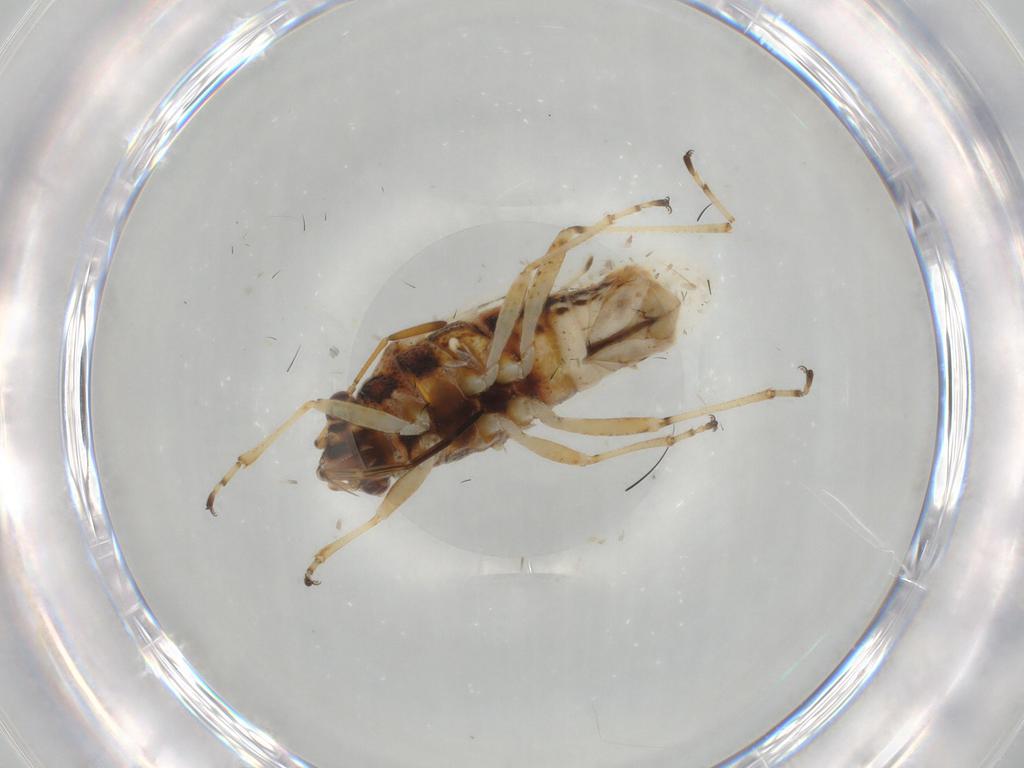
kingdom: Animalia
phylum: Arthropoda
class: Insecta
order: Hemiptera
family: Lygaeidae
